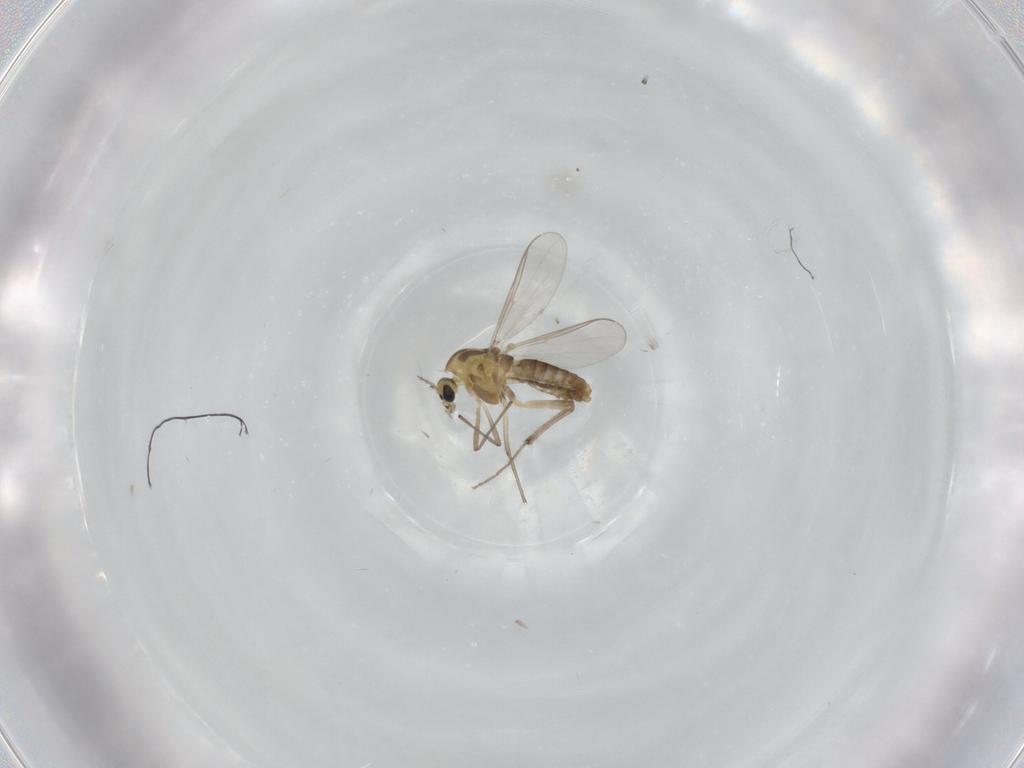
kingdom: Animalia
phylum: Arthropoda
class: Insecta
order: Diptera
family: Chironomidae
